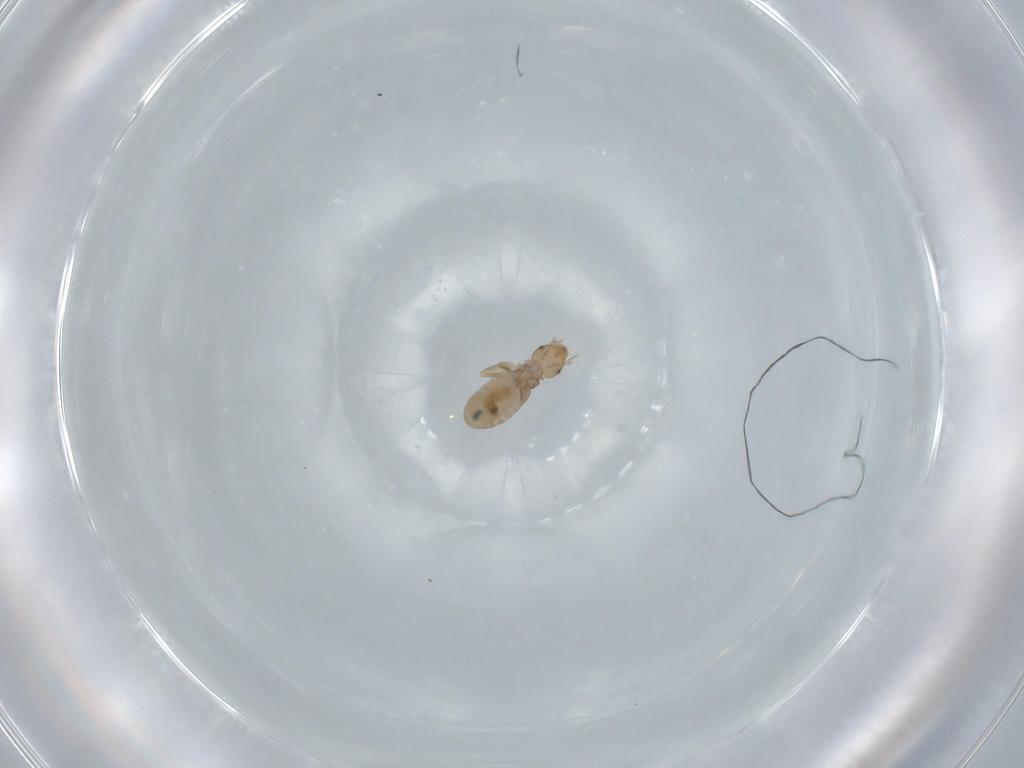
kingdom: Animalia
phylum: Arthropoda
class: Insecta
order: Psocodea
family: Liposcelididae
